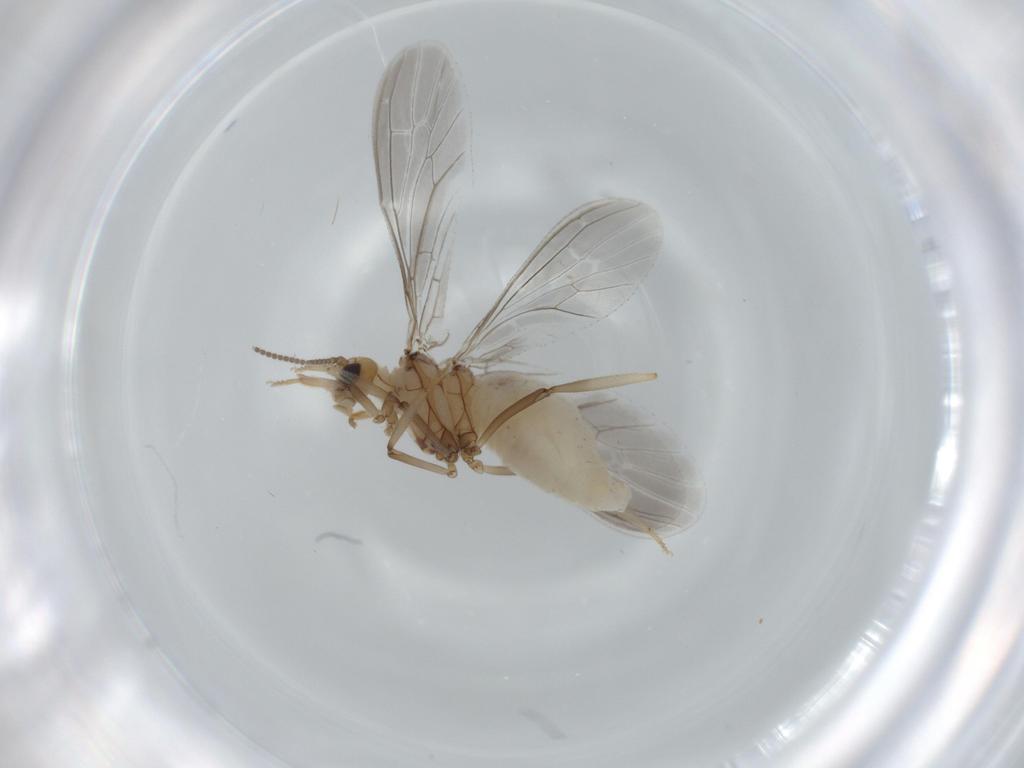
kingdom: Animalia
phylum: Arthropoda
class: Insecta
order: Neuroptera
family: Coniopterygidae
